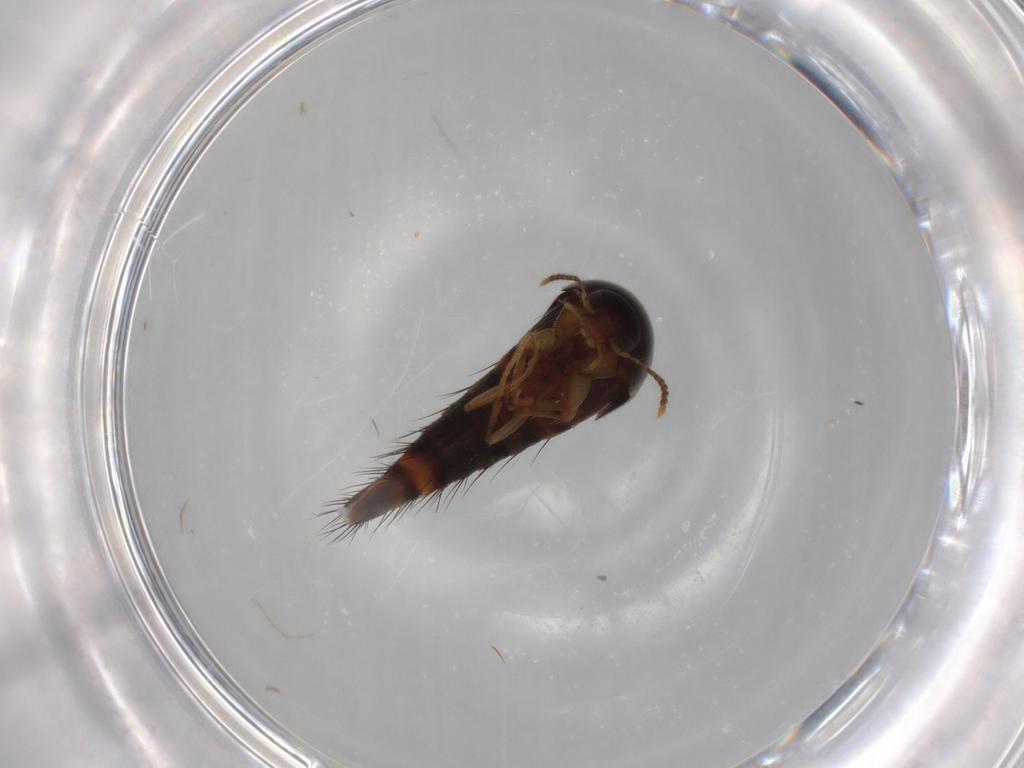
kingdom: Animalia
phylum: Arthropoda
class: Insecta
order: Coleoptera
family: Staphylinidae
